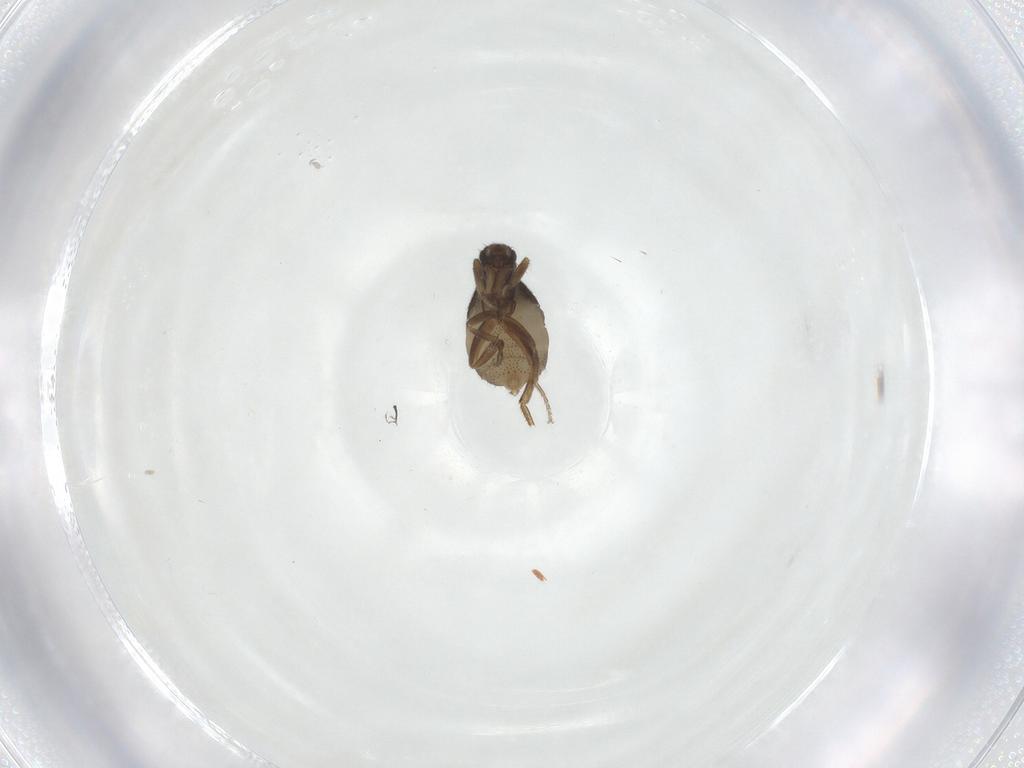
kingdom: Animalia
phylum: Arthropoda
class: Insecta
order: Diptera
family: Phoridae
